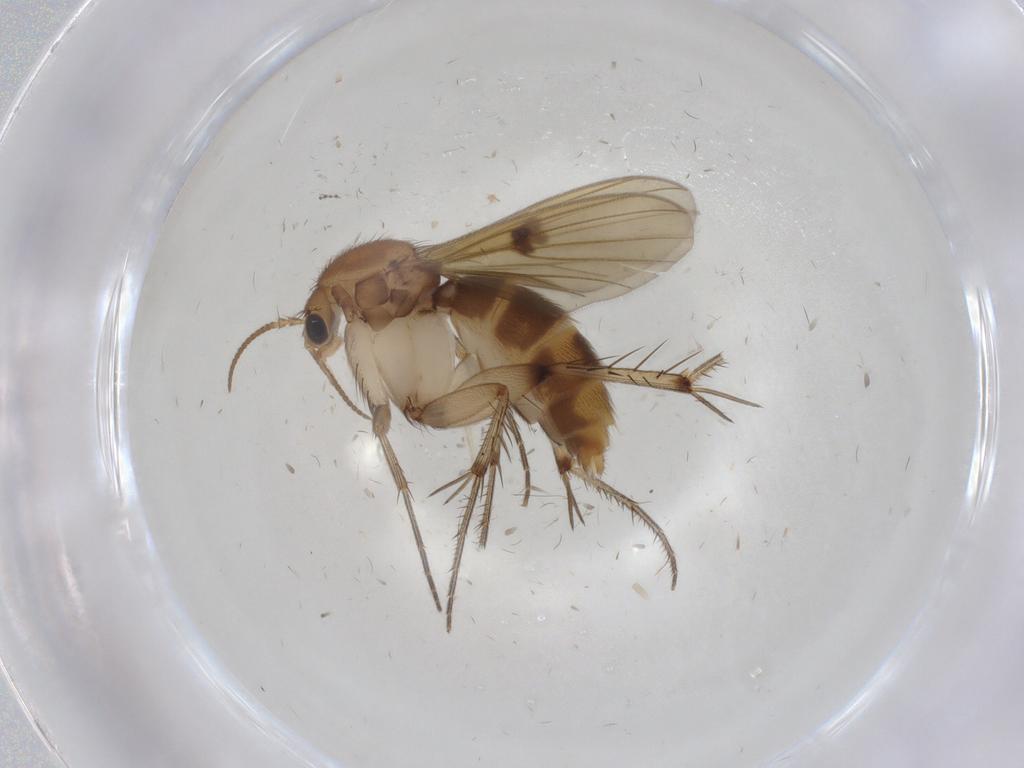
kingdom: Animalia
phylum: Arthropoda
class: Insecta
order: Diptera
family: Mycetophilidae
